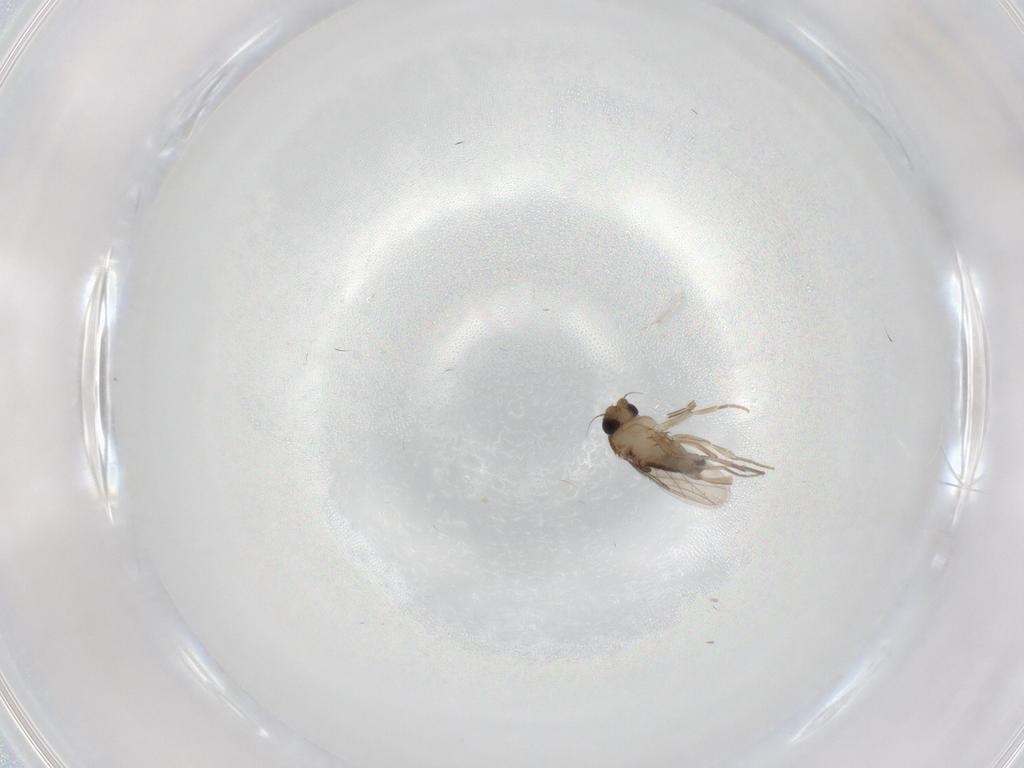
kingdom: Animalia
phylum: Arthropoda
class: Insecta
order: Diptera
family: Phoridae
